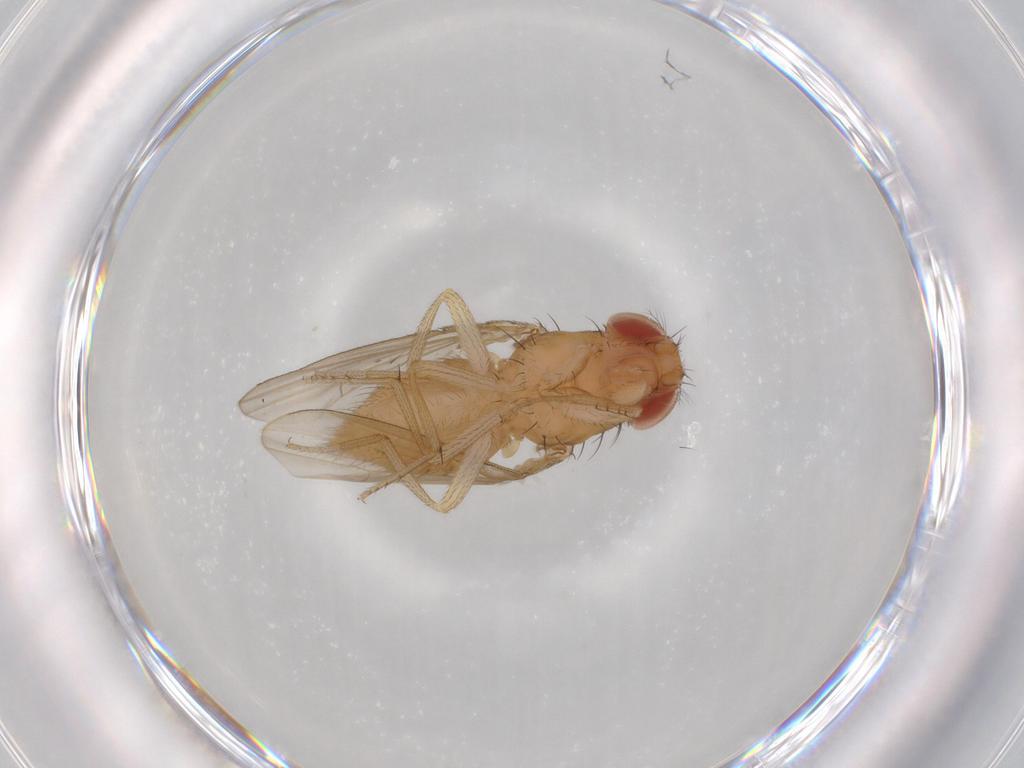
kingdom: Animalia
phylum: Arthropoda
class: Insecta
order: Diptera
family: Drosophilidae
